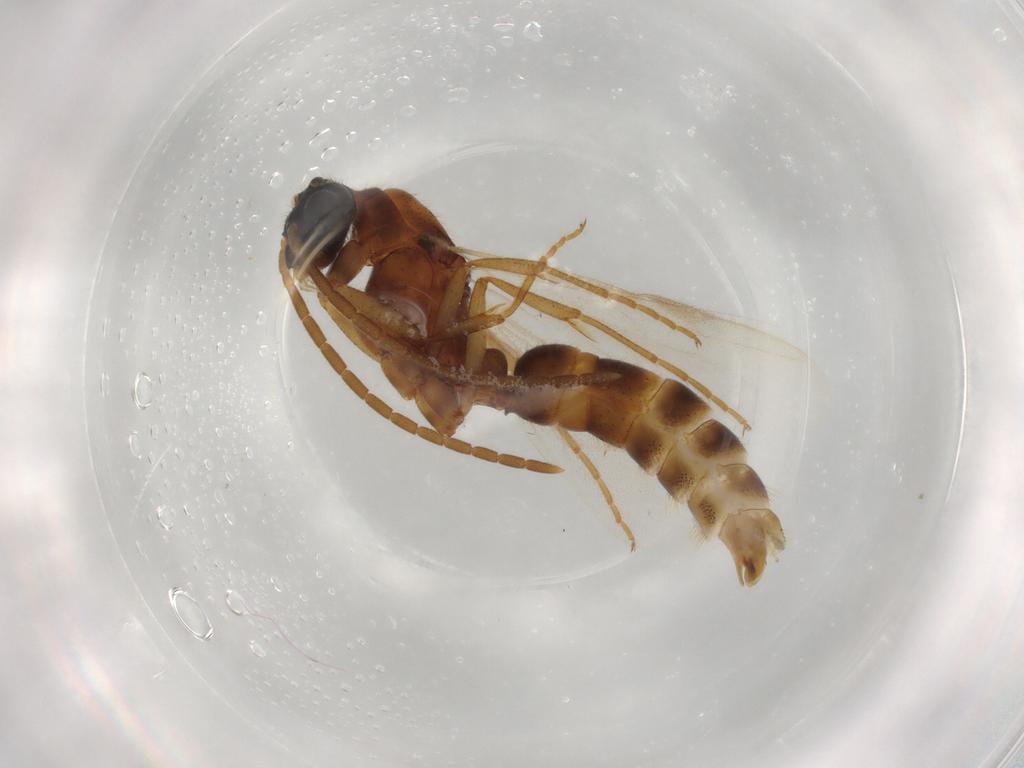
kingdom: Animalia
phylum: Arthropoda
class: Insecta
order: Hymenoptera
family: Formicidae
